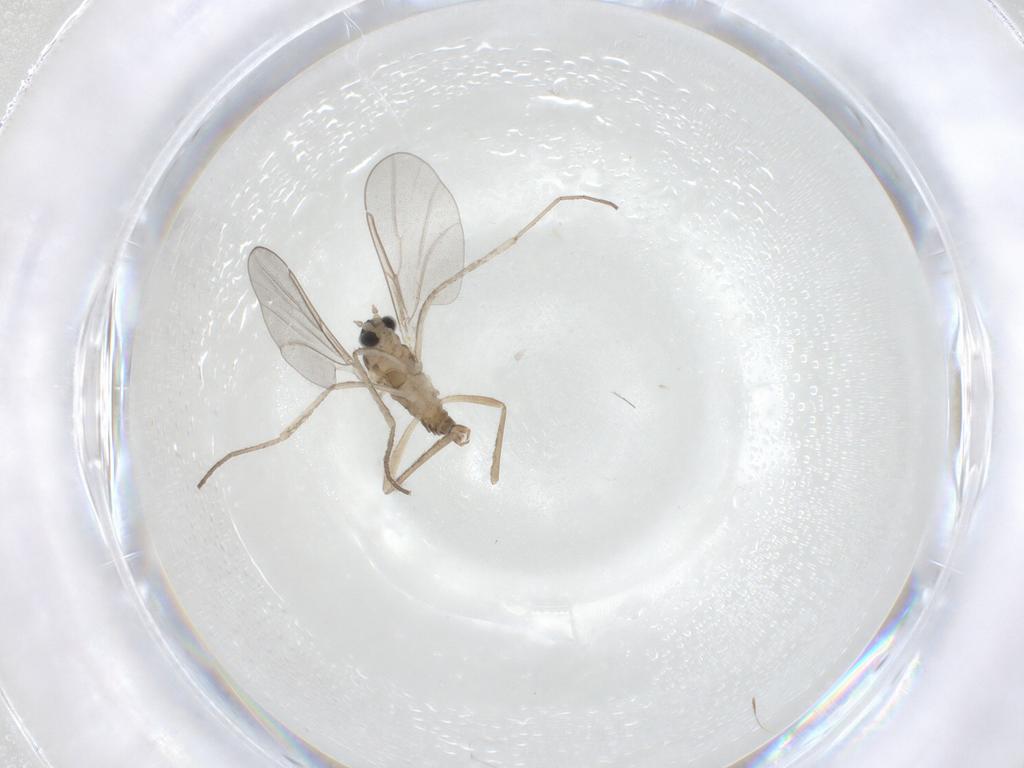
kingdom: Animalia
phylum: Arthropoda
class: Insecta
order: Diptera
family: Cecidomyiidae
